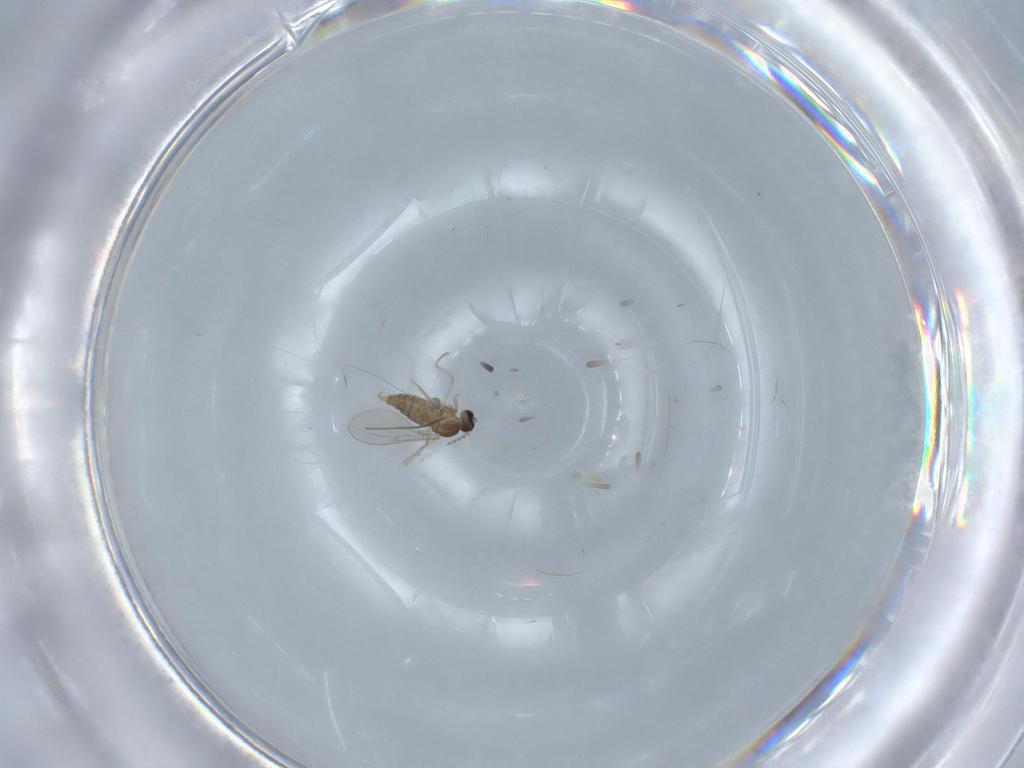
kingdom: Animalia
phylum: Arthropoda
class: Insecta
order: Diptera
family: Cecidomyiidae
